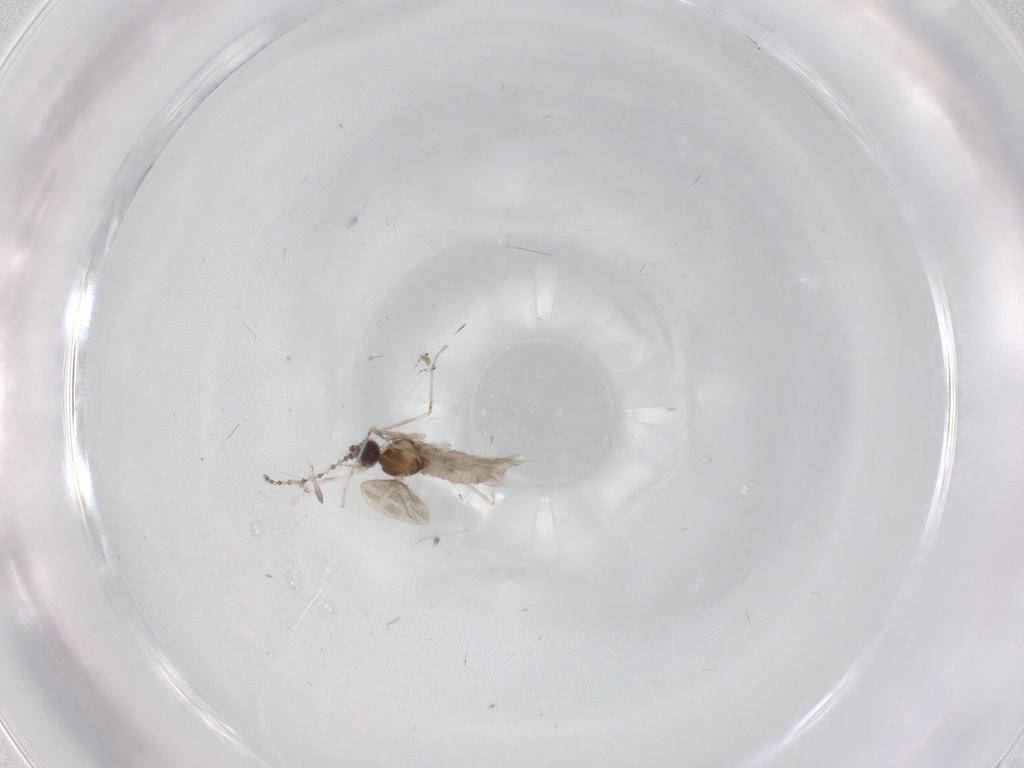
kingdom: Animalia
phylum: Arthropoda
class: Insecta
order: Diptera
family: Cecidomyiidae
